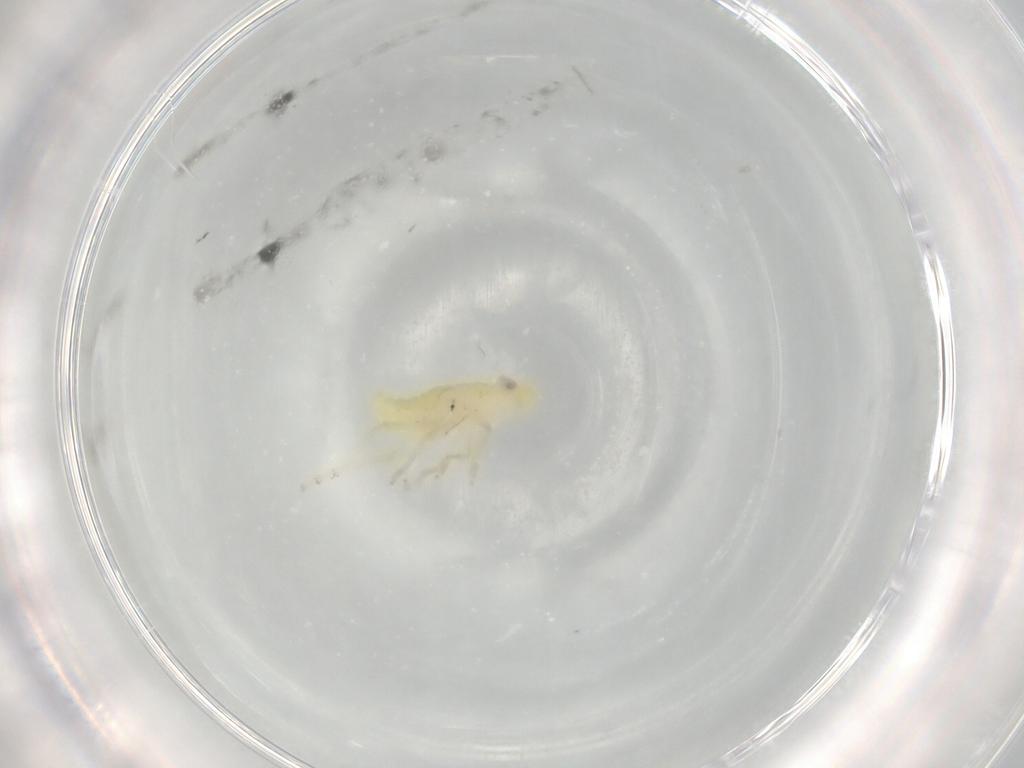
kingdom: Animalia
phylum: Arthropoda
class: Insecta
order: Hemiptera
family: Tropiduchidae
